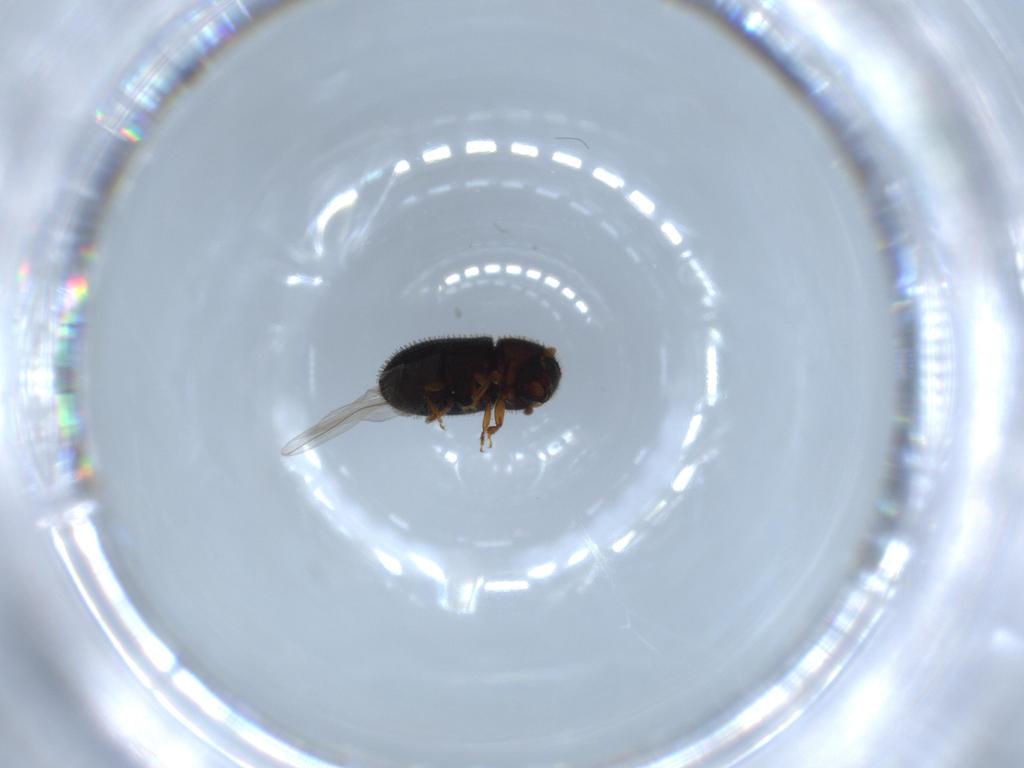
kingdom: Animalia
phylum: Arthropoda
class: Insecta
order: Coleoptera
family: Curculionidae
